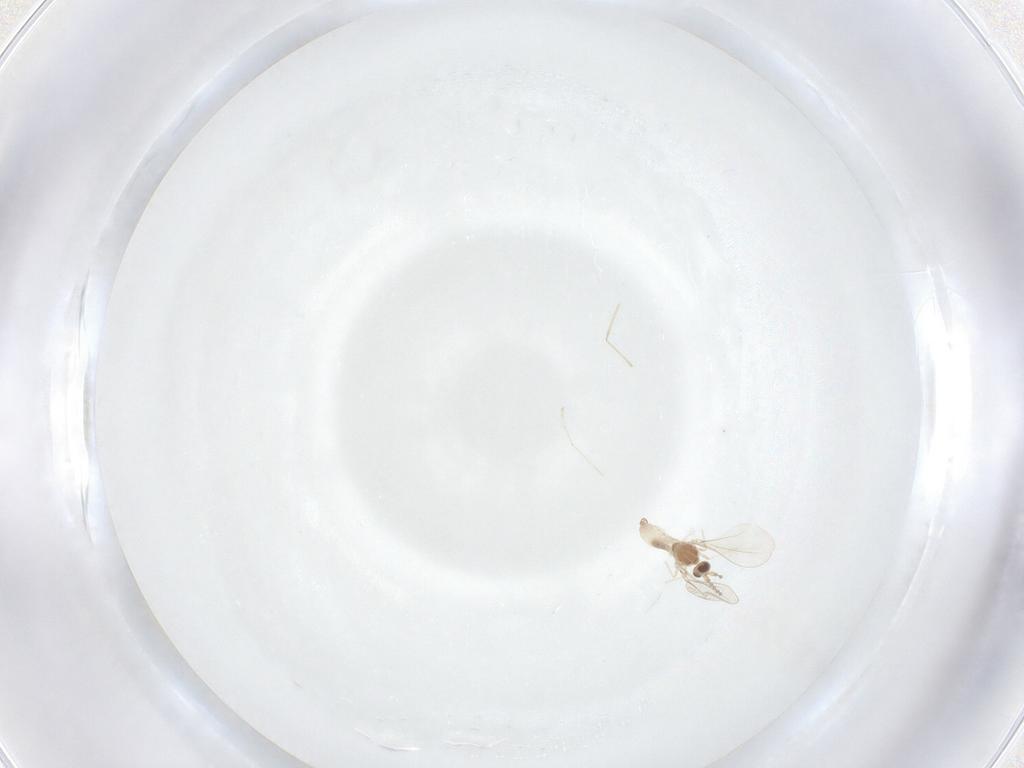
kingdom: Animalia
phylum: Arthropoda
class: Insecta
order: Diptera
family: Cecidomyiidae
